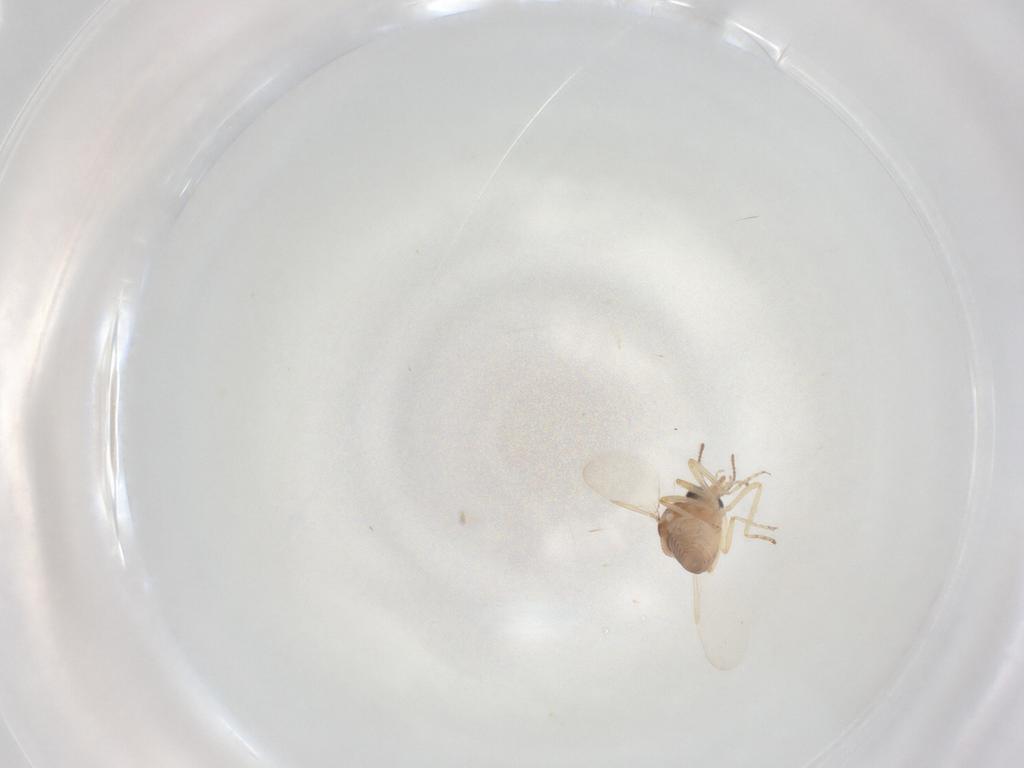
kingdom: Animalia
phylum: Arthropoda
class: Insecta
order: Diptera
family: Ceratopogonidae
